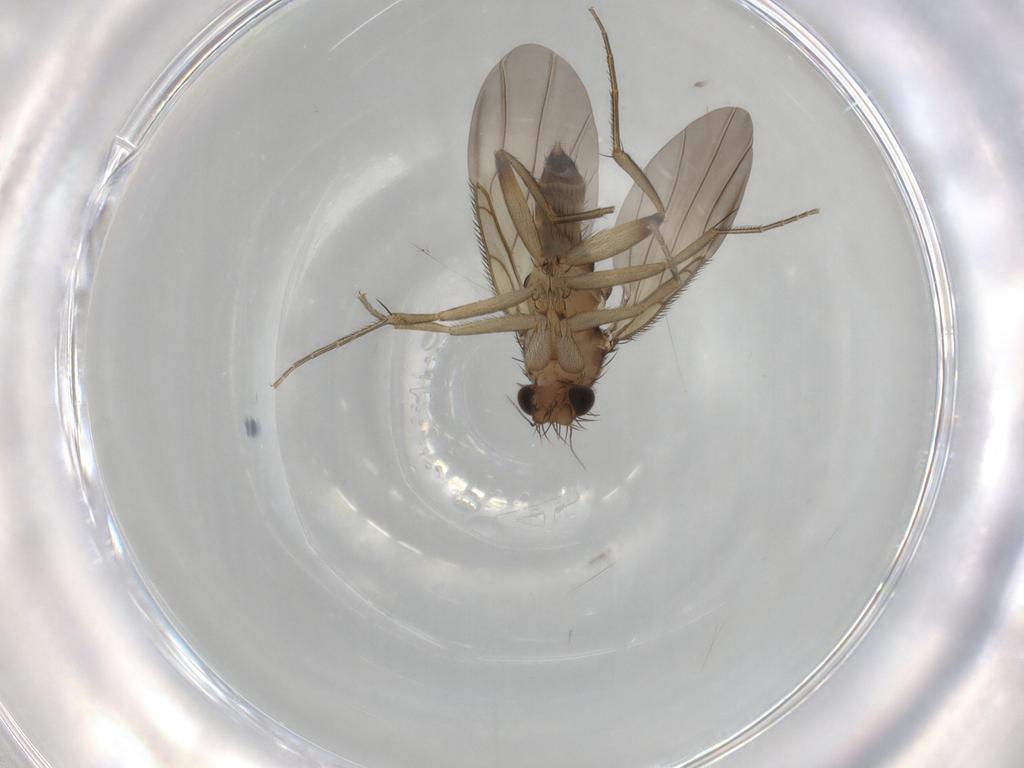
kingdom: Animalia
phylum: Arthropoda
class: Insecta
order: Diptera
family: Phoridae
